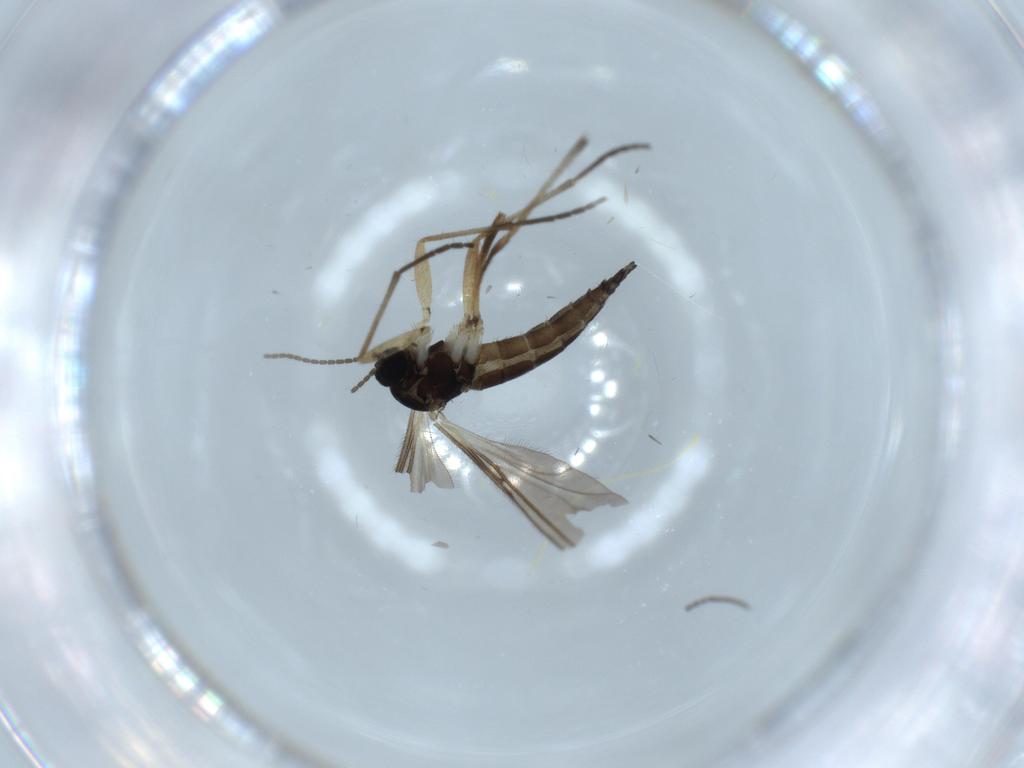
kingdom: Animalia
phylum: Arthropoda
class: Insecta
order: Diptera
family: Sciaridae
